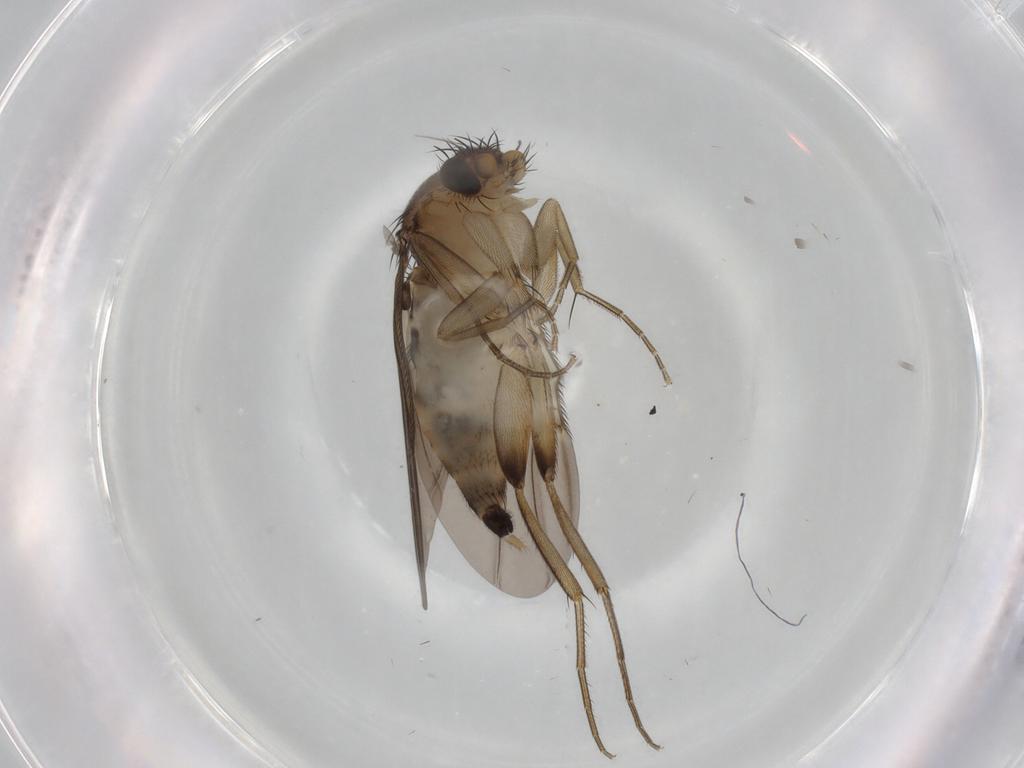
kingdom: Animalia
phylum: Arthropoda
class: Insecta
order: Diptera
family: Phoridae
